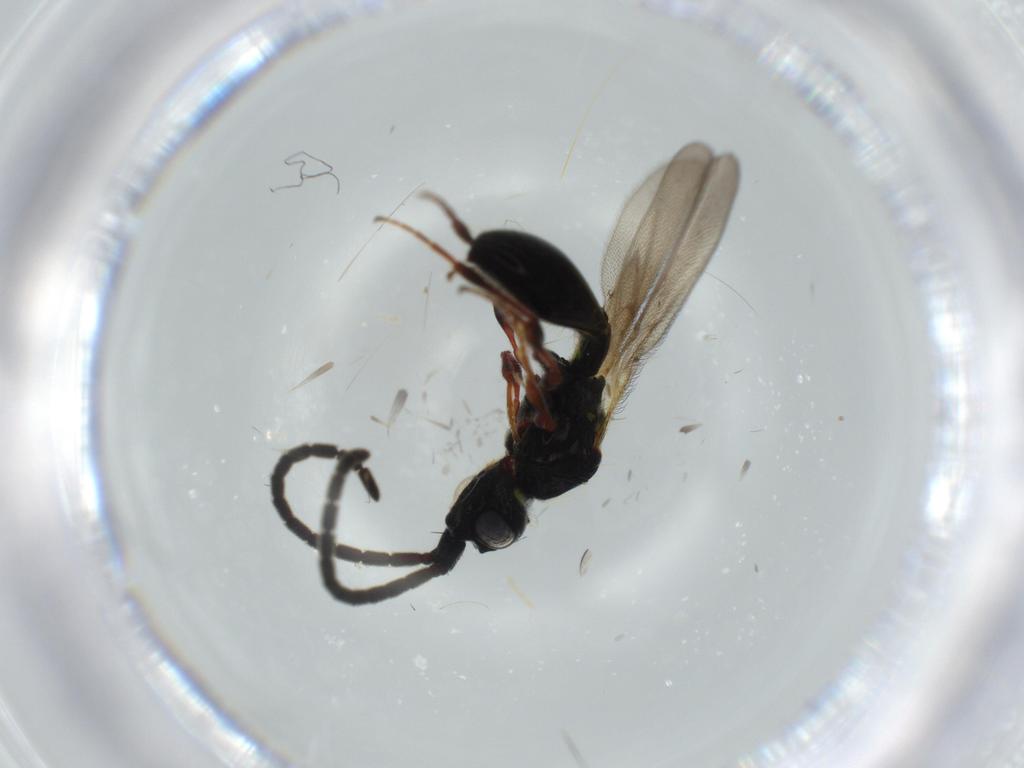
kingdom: Animalia
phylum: Arthropoda
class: Insecta
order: Hymenoptera
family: Diapriidae
